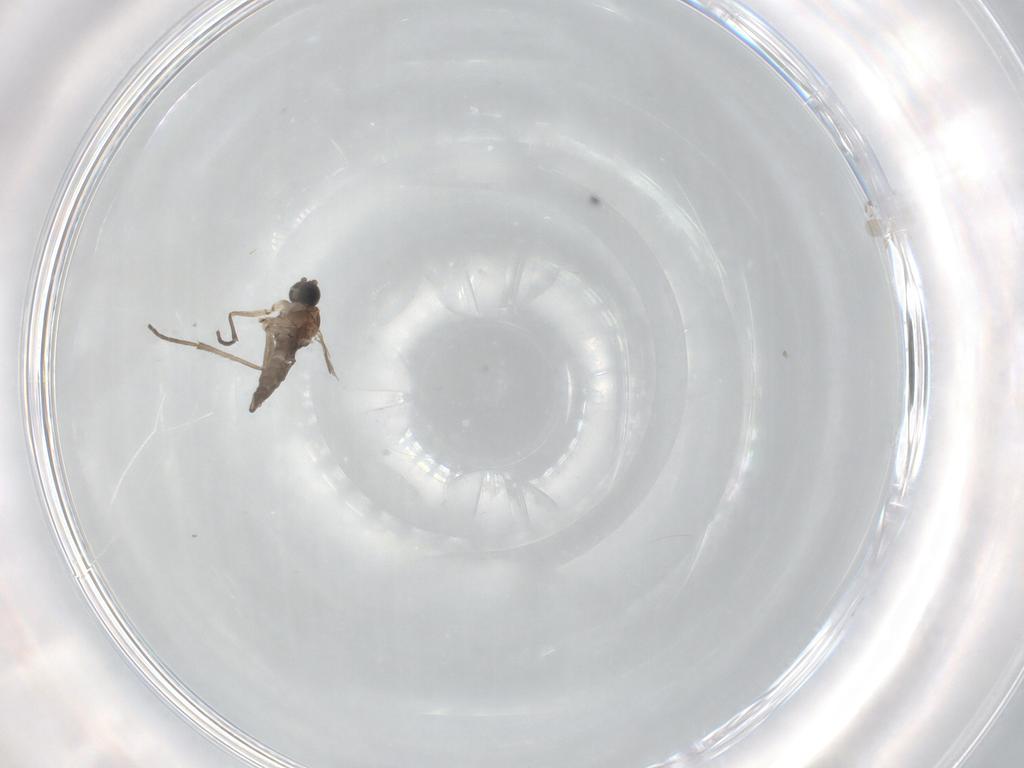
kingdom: Animalia
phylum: Arthropoda
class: Insecta
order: Diptera
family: Sciaridae
